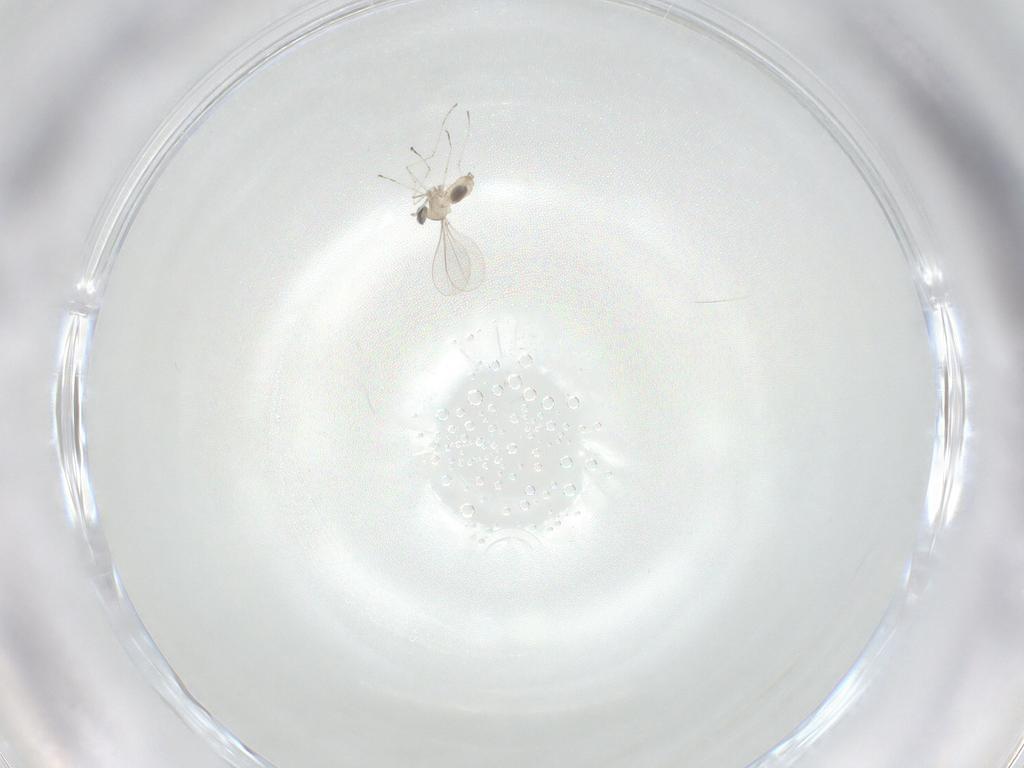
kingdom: Animalia
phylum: Arthropoda
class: Insecta
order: Diptera
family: Cecidomyiidae
